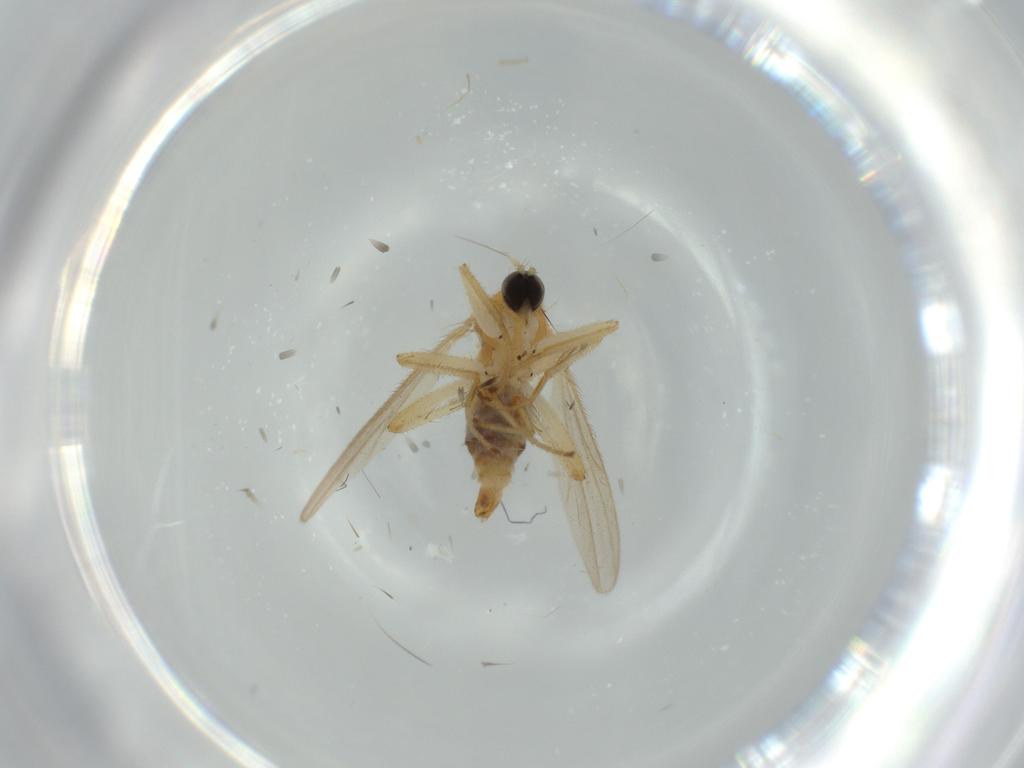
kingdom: Animalia
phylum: Arthropoda
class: Insecta
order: Diptera
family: Hybotidae
